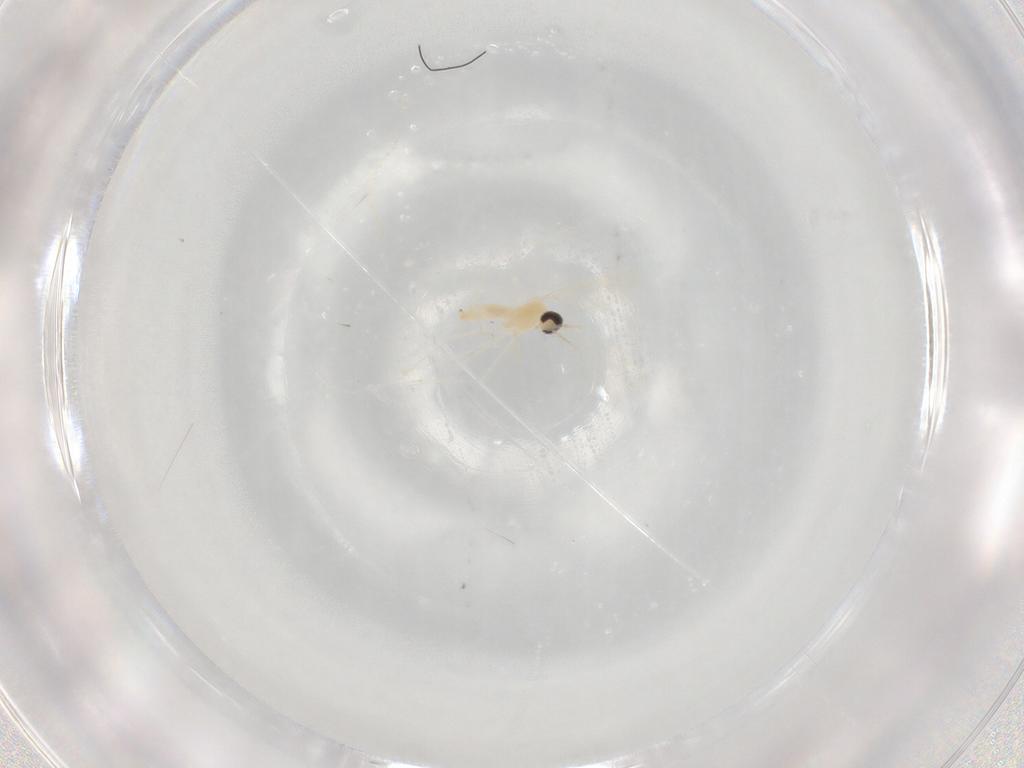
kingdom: Animalia
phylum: Arthropoda
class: Insecta
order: Diptera
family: Cecidomyiidae
